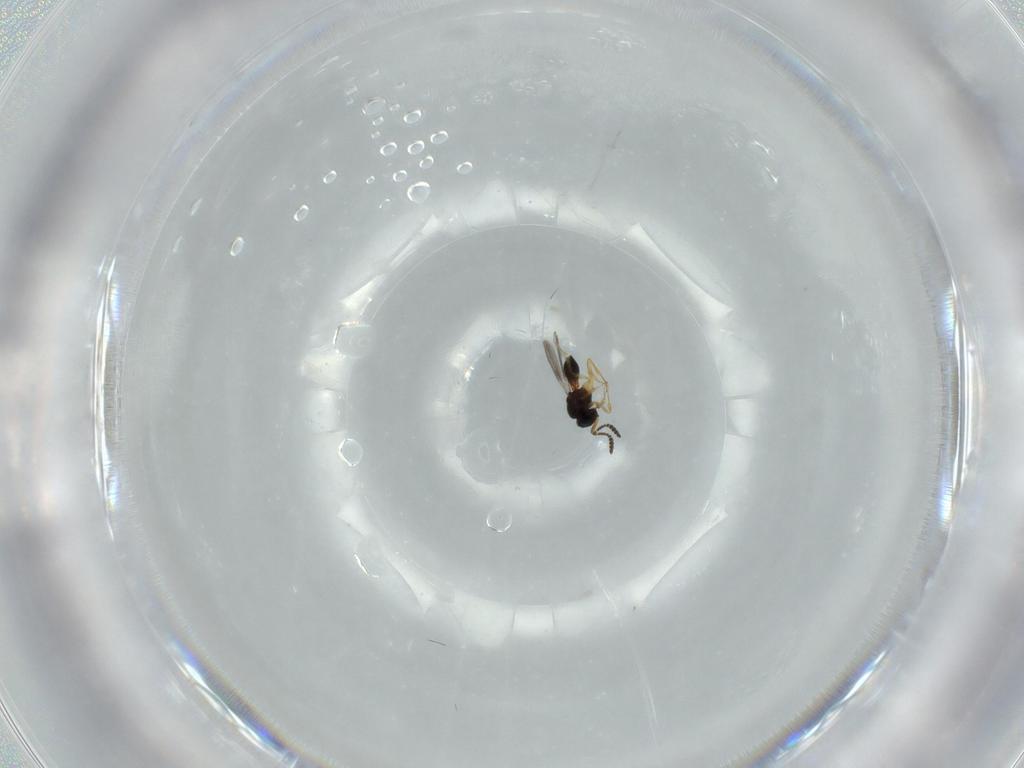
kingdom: Animalia
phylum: Arthropoda
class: Insecta
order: Hymenoptera
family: Scelionidae
